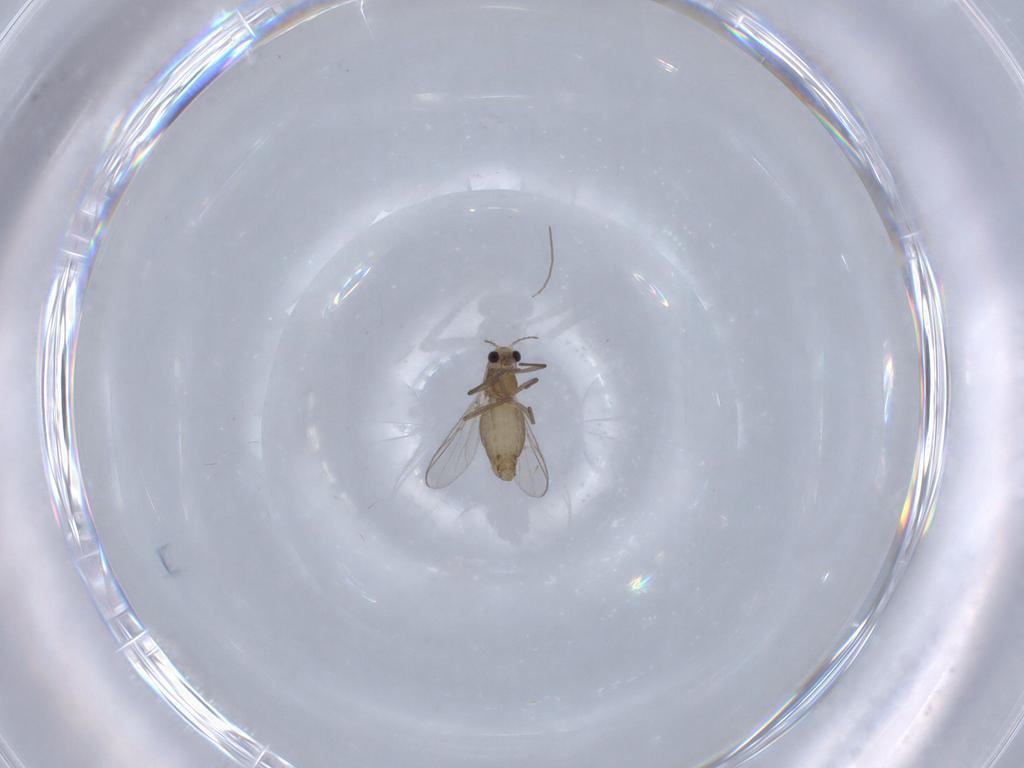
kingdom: Animalia
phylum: Arthropoda
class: Insecta
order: Diptera
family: Chironomidae
